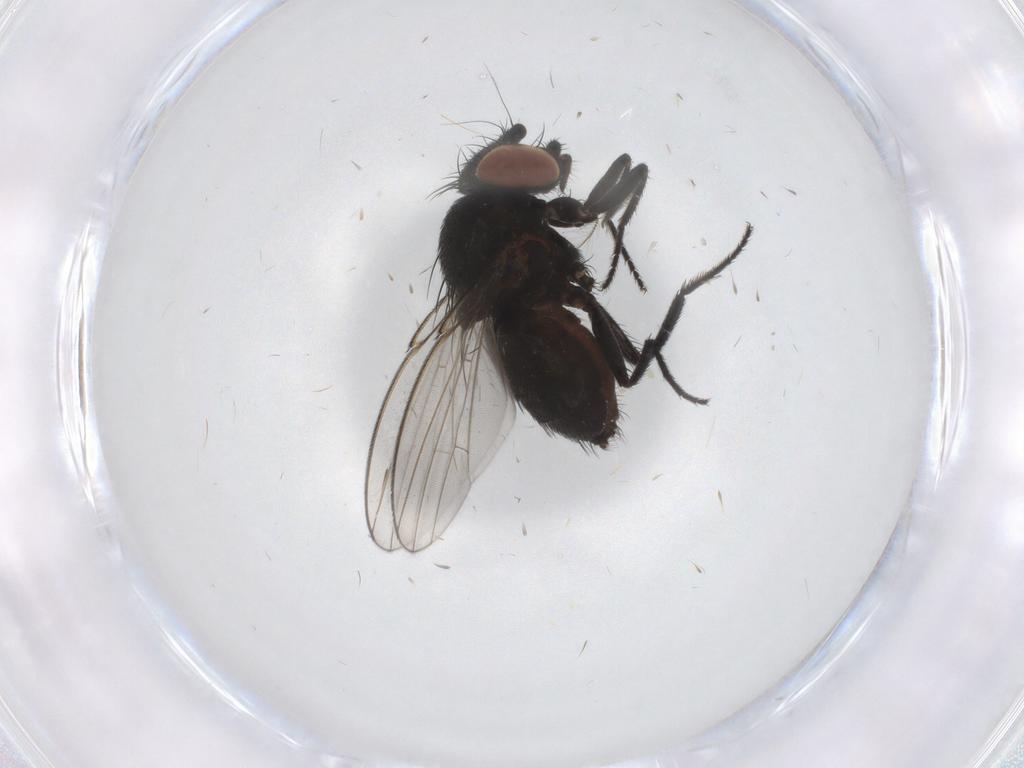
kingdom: Animalia
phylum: Arthropoda
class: Insecta
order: Diptera
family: Milichiidae
